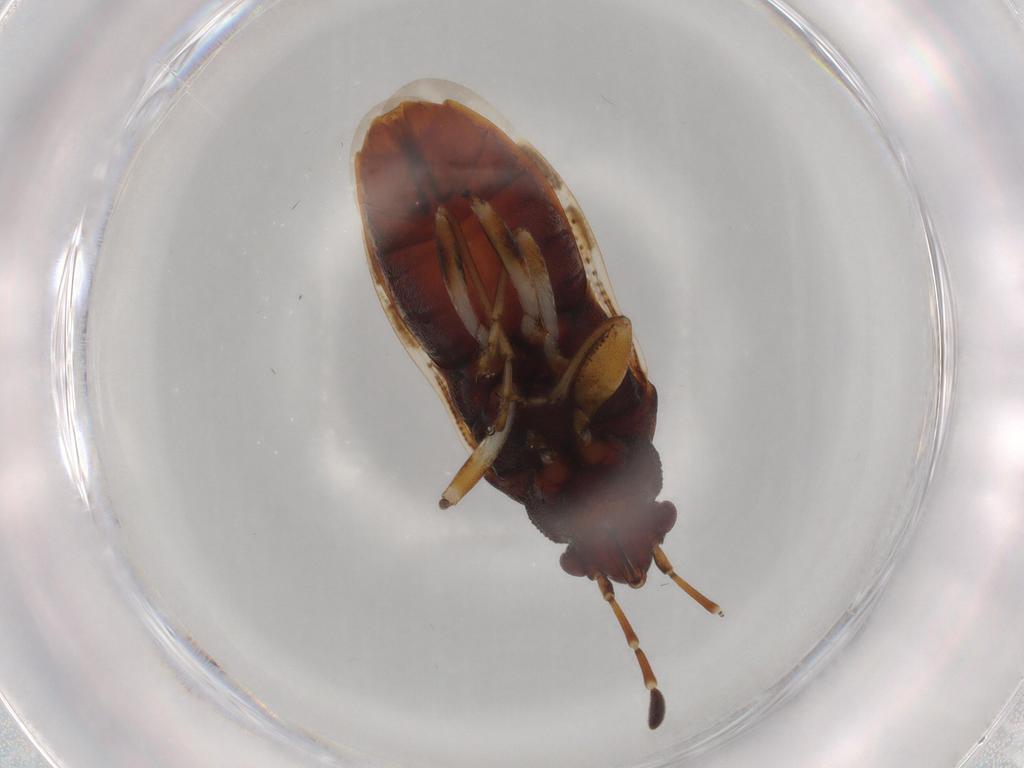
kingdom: Animalia
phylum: Arthropoda
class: Insecta
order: Hemiptera
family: Rhyparochromidae
